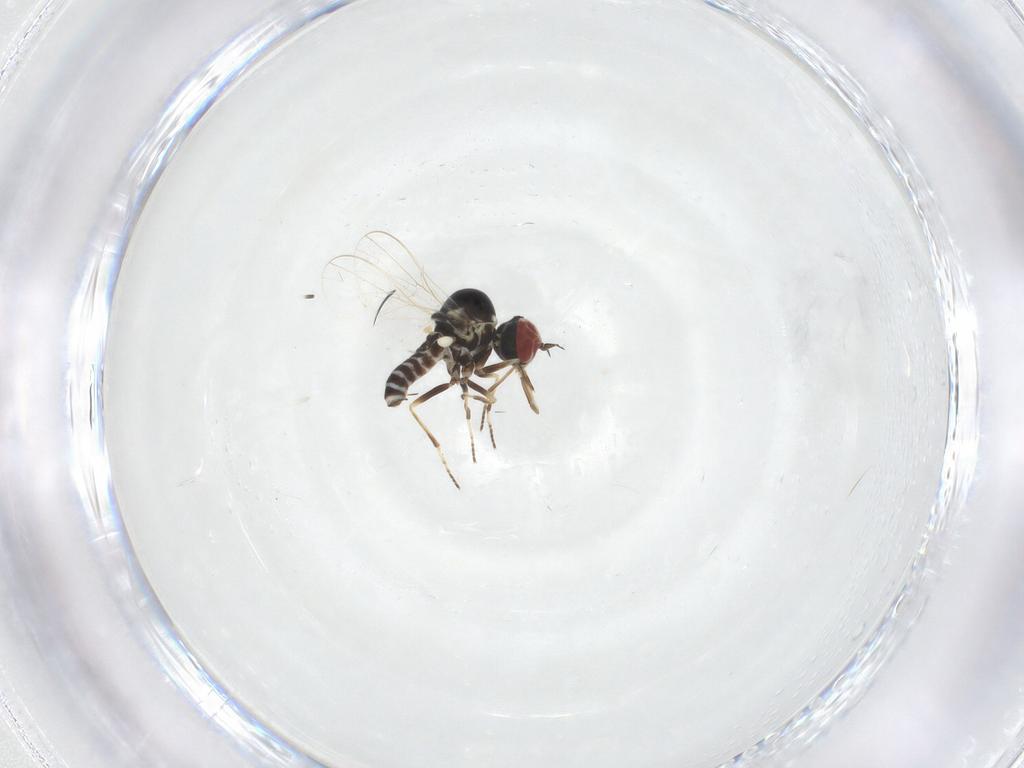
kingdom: Animalia
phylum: Arthropoda
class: Insecta
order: Diptera
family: Mythicomyiidae
